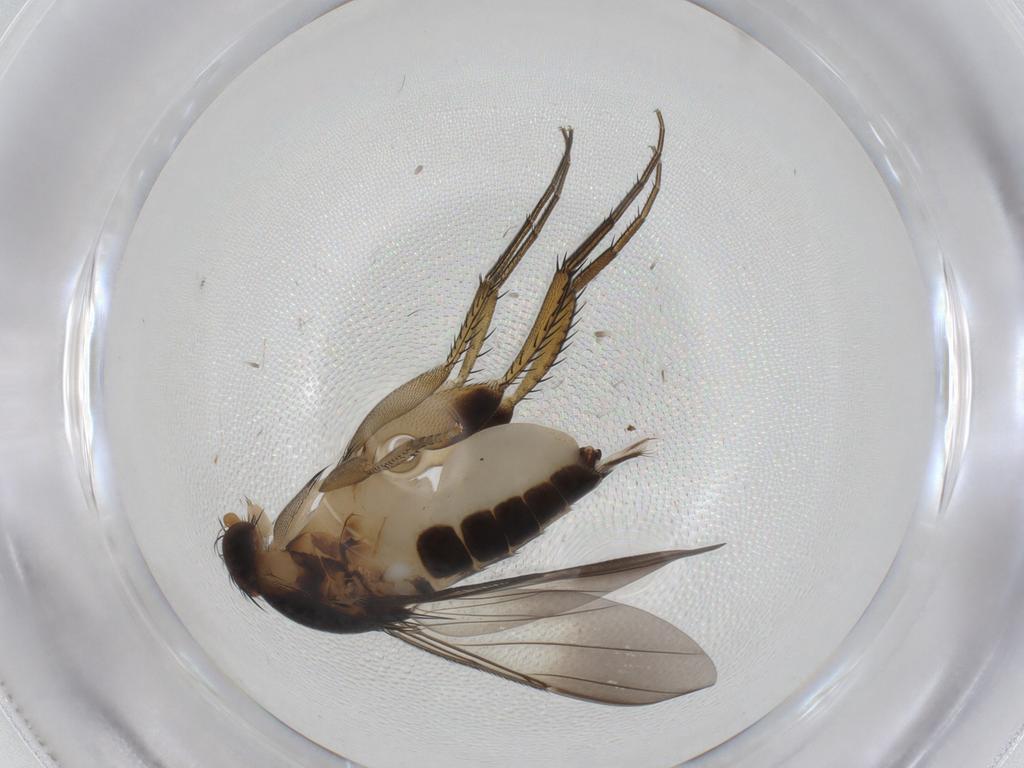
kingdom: Animalia
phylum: Arthropoda
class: Insecta
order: Diptera
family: Phoridae
